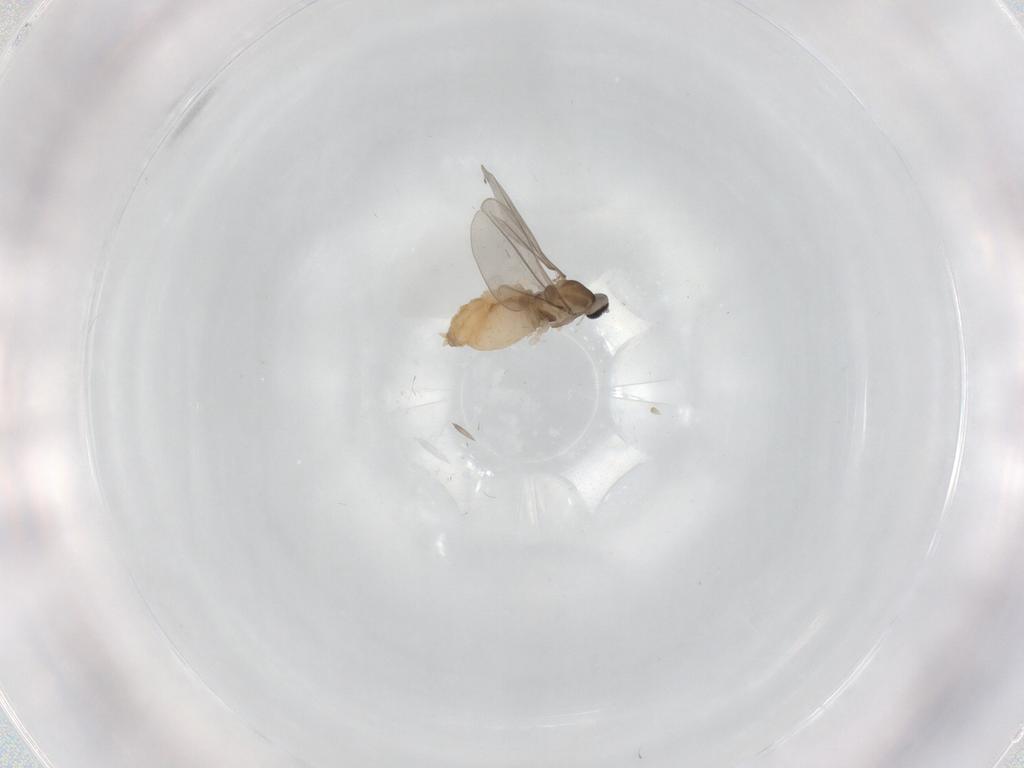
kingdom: Animalia
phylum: Arthropoda
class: Insecta
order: Diptera
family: Cecidomyiidae
